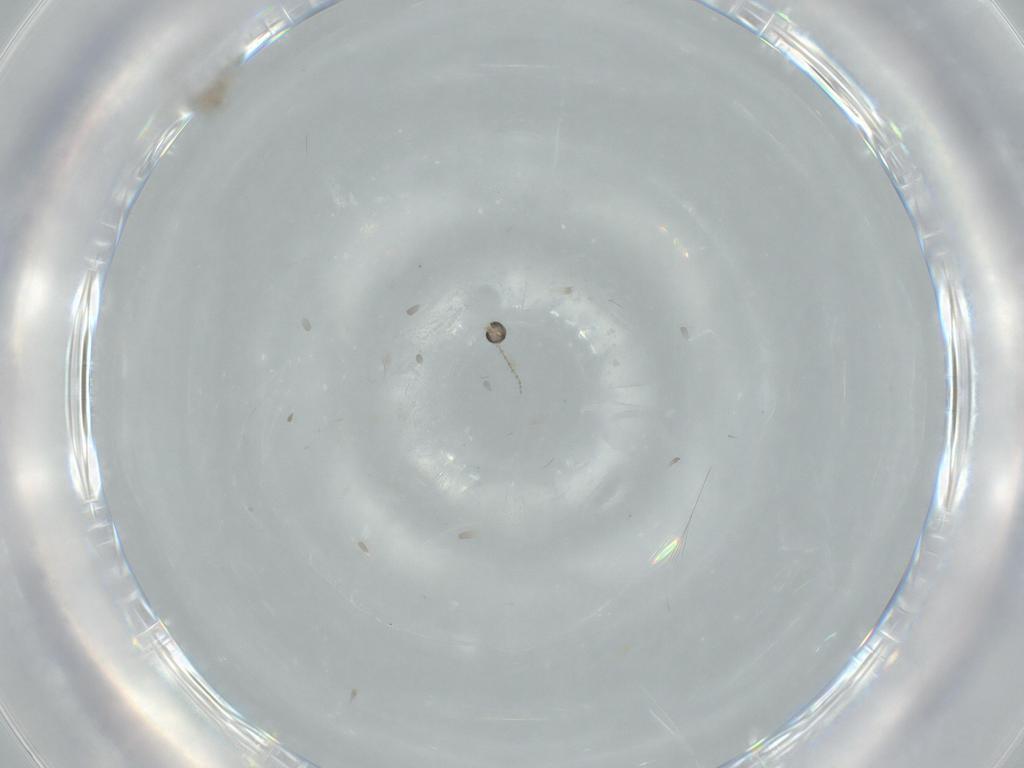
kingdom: Animalia
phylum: Arthropoda
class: Insecta
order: Diptera
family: Cecidomyiidae
